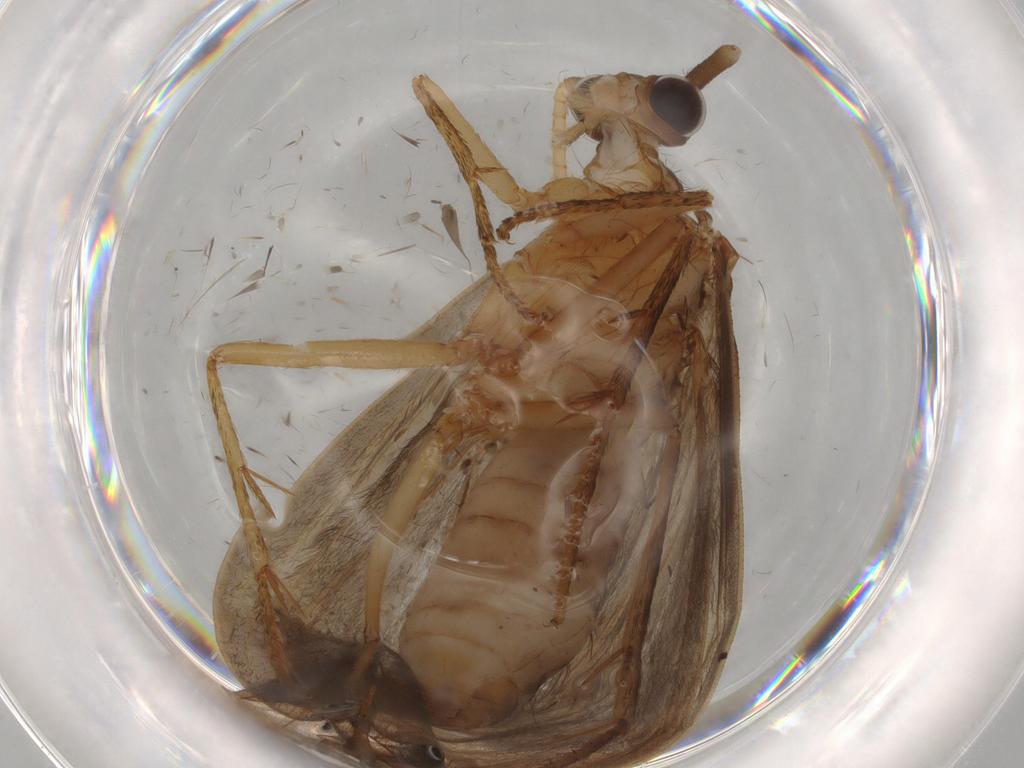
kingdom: Animalia
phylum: Arthropoda
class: Insecta
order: Trichoptera
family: Lepidostomatidae
